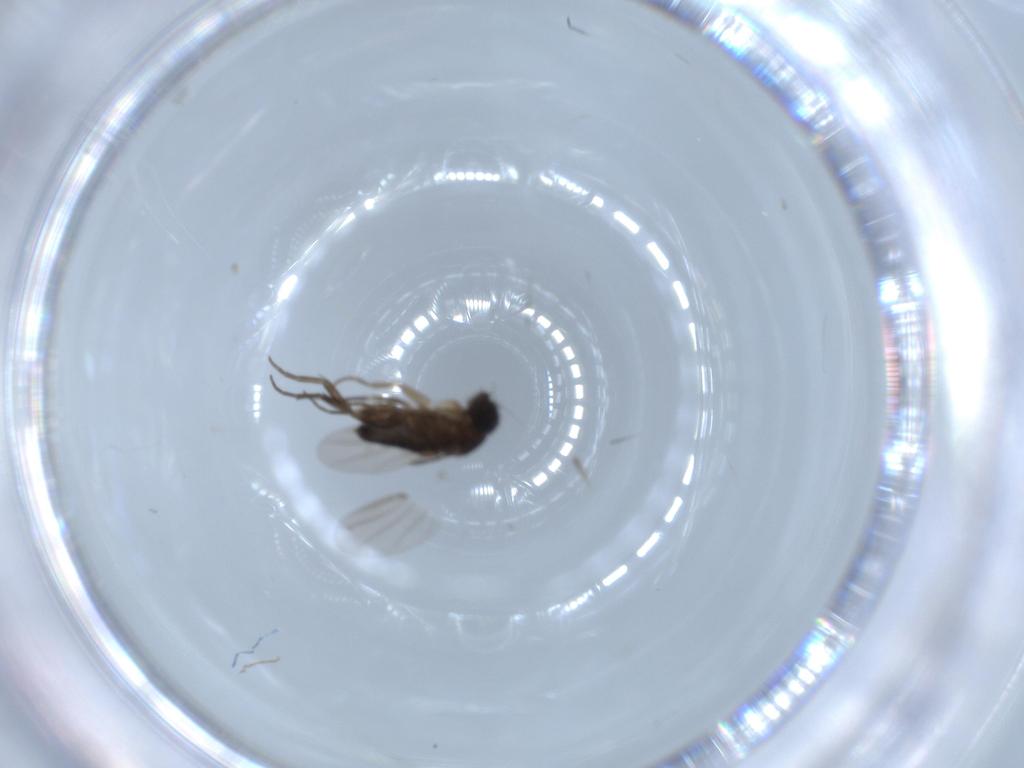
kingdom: Animalia
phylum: Arthropoda
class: Insecta
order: Diptera
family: Phoridae
